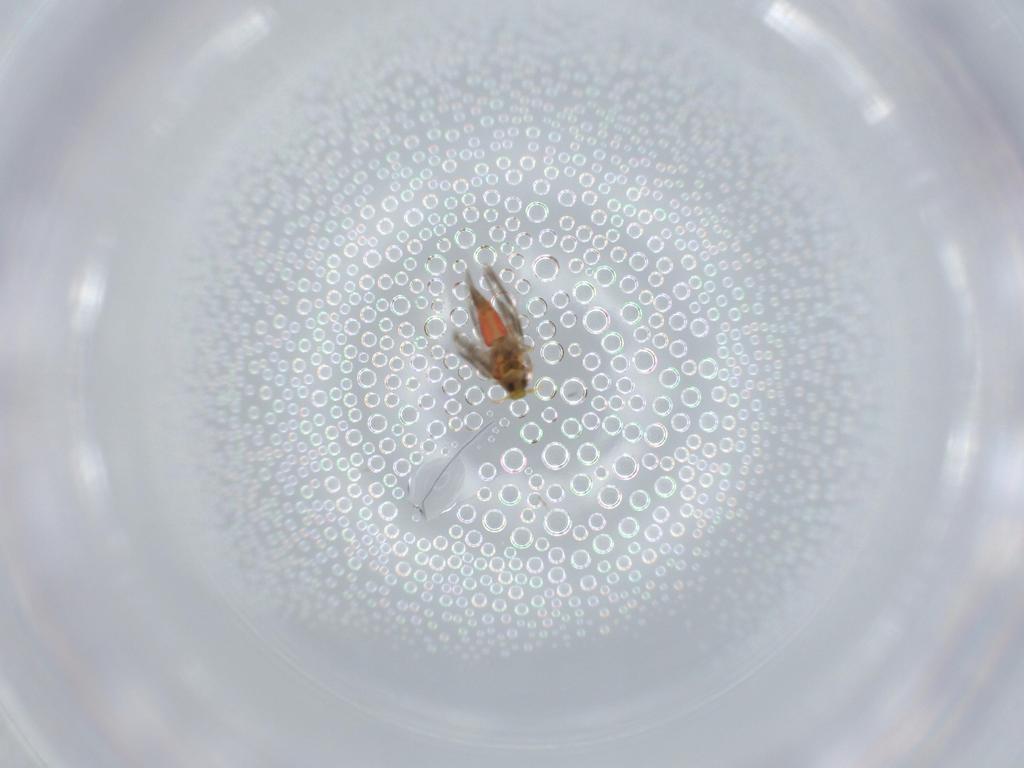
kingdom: Animalia
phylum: Arthropoda
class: Insecta
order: Hemiptera
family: Aleyrodidae
